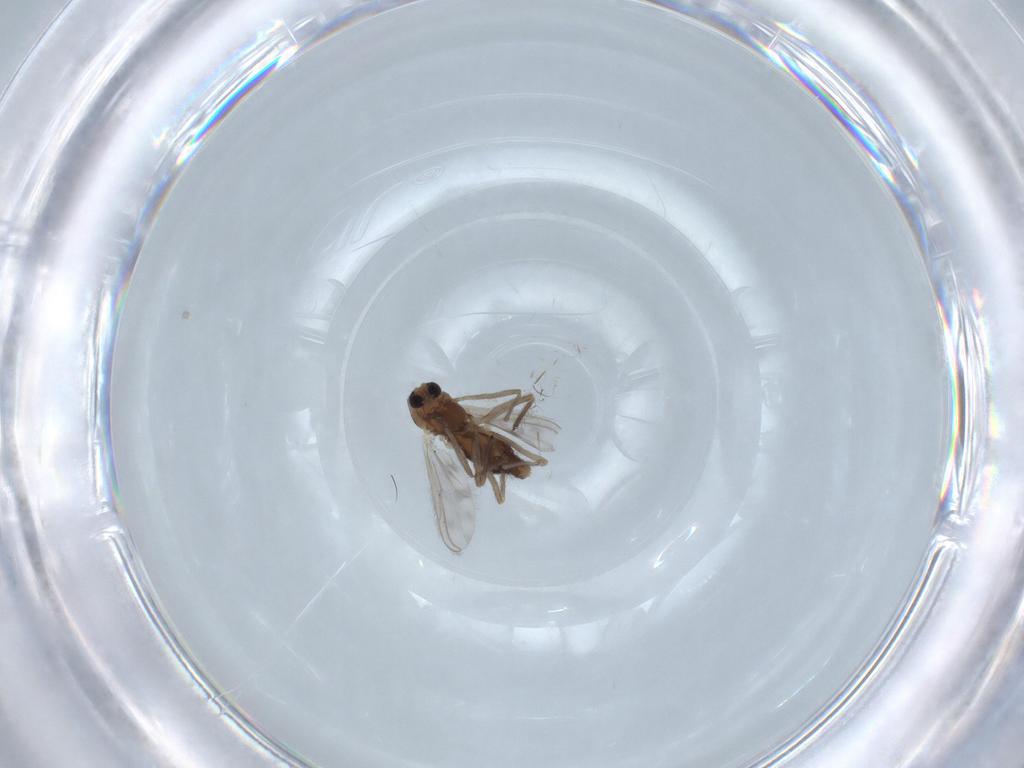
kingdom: Animalia
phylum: Arthropoda
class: Insecta
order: Diptera
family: Chironomidae
